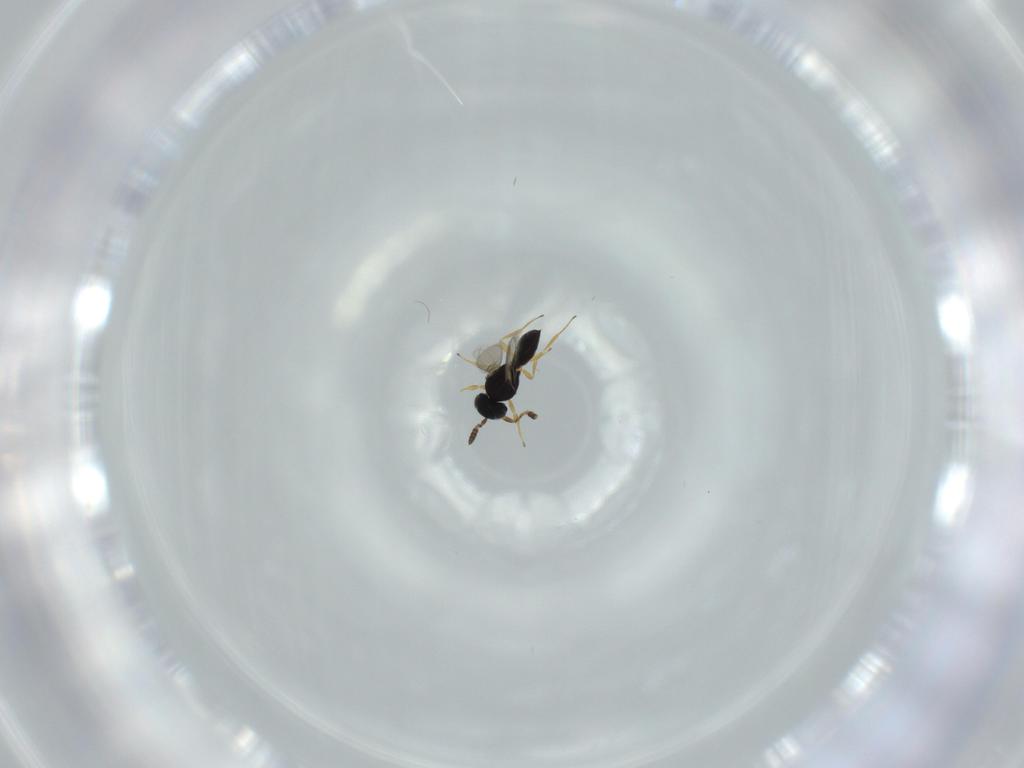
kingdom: Animalia
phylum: Arthropoda
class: Insecta
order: Hymenoptera
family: Scelionidae
